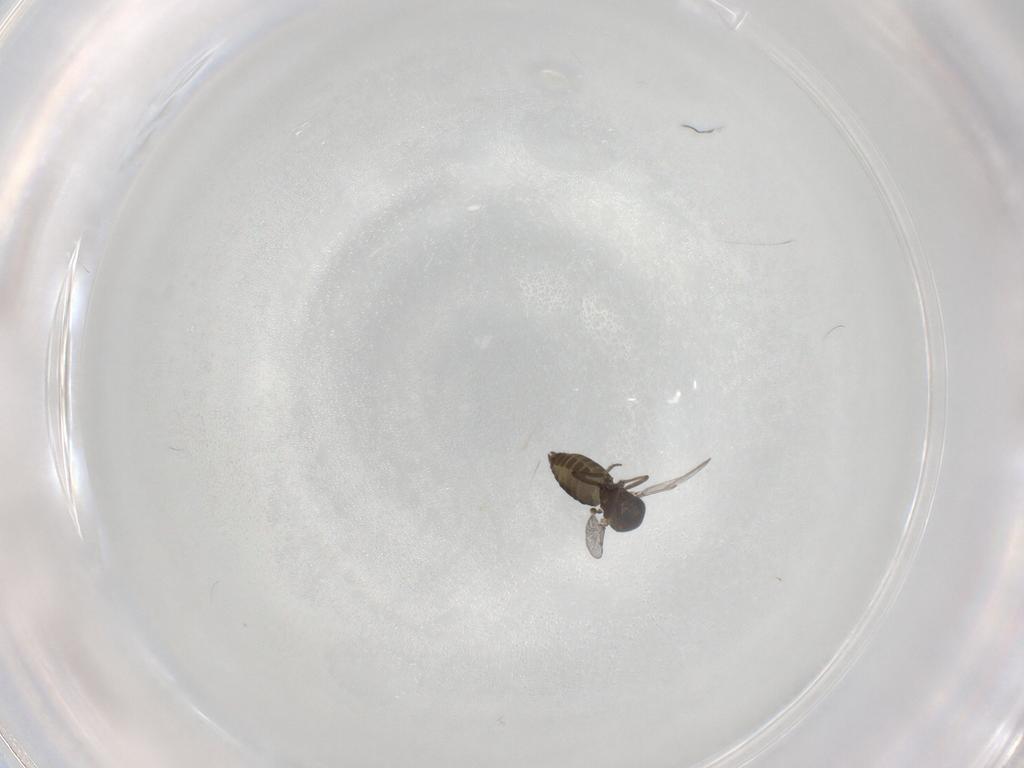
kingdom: Animalia
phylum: Arthropoda
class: Insecta
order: Diptera
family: Ceratopogonidae
